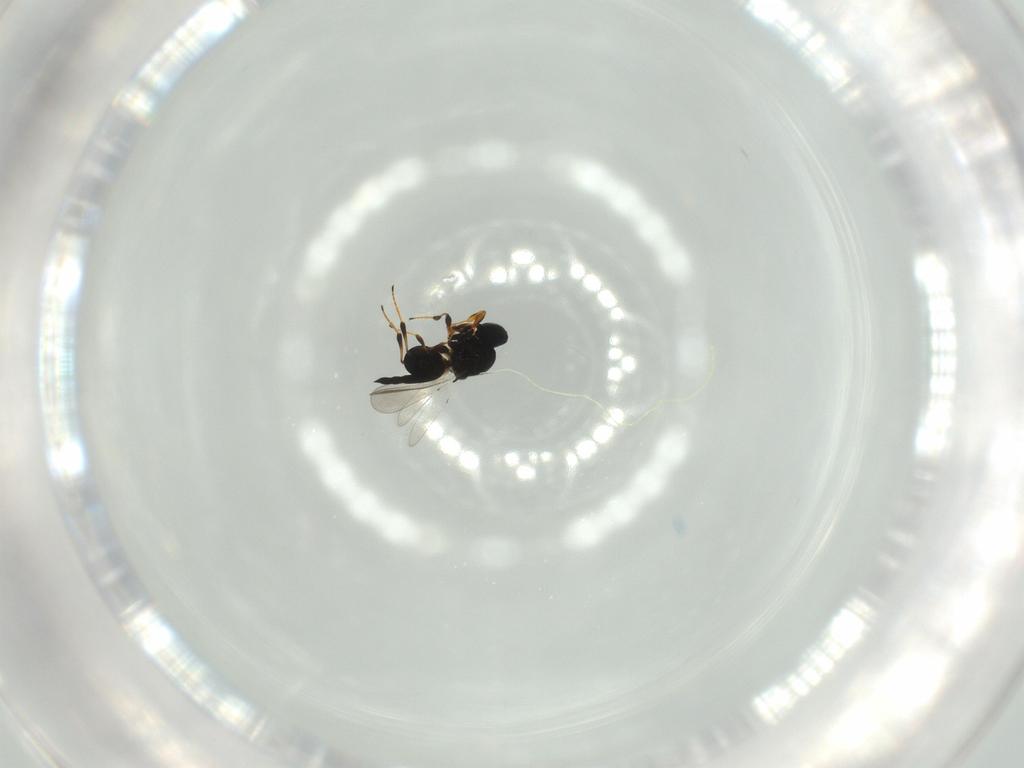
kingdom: Animalia
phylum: Arthropoda
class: Insecta
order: Hymenoptera
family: Platygastridae
